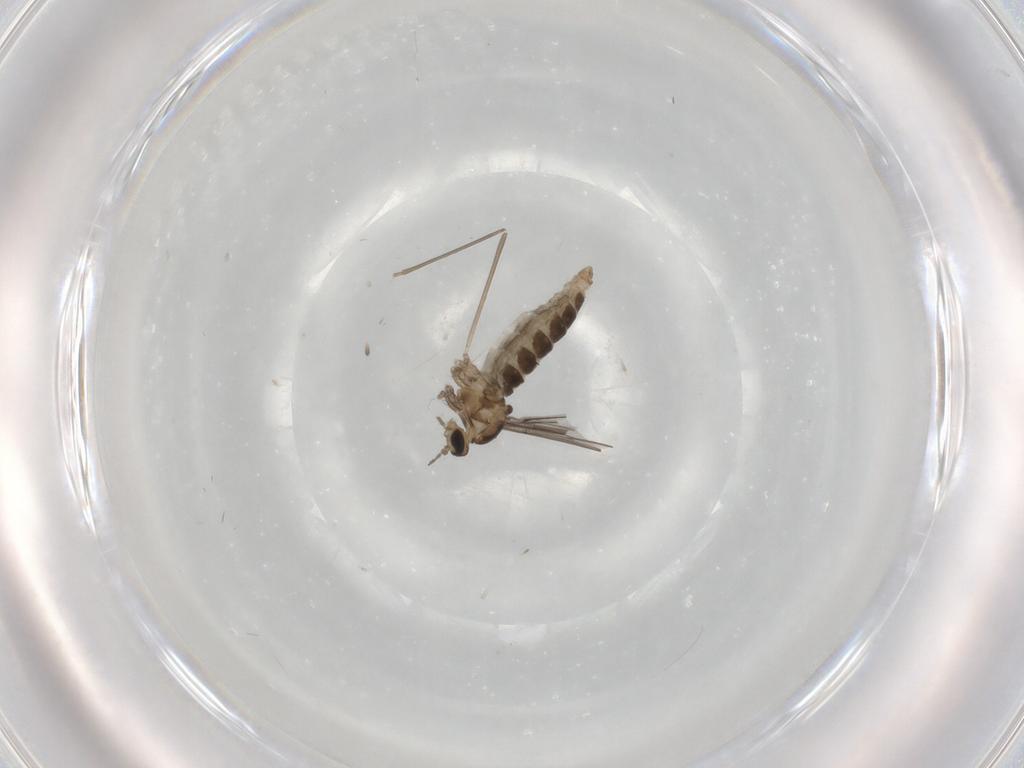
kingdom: Animalia
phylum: Arthropoda
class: Insecta
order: Diptera
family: Cecidomyiidae
